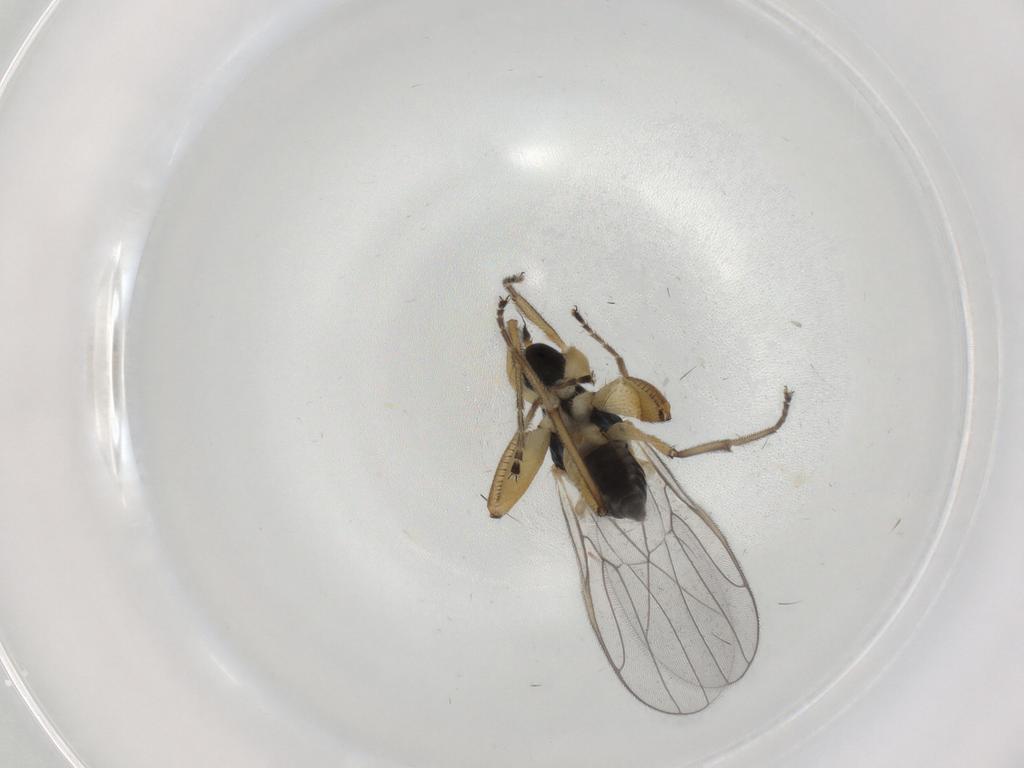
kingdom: Animalia
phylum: Arthropoda
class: Insecta
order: Diptera
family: Hybotidae
